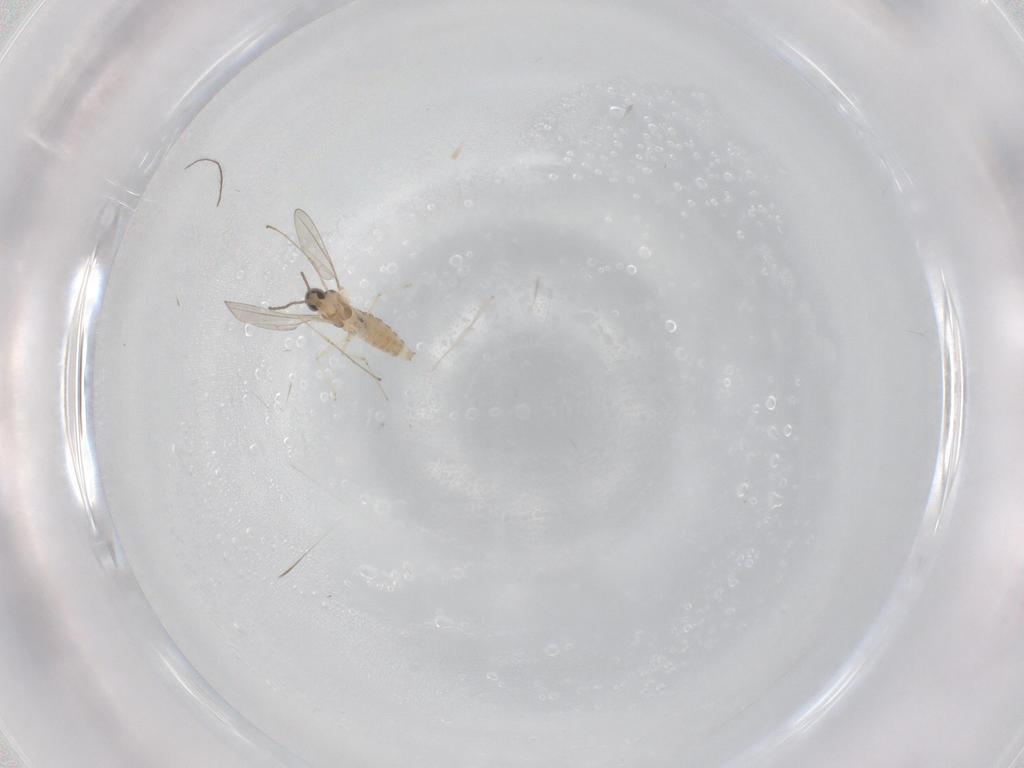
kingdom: Animalia
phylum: Arthropoda
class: Insecta
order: Diptera
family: Cecidomyiidae
